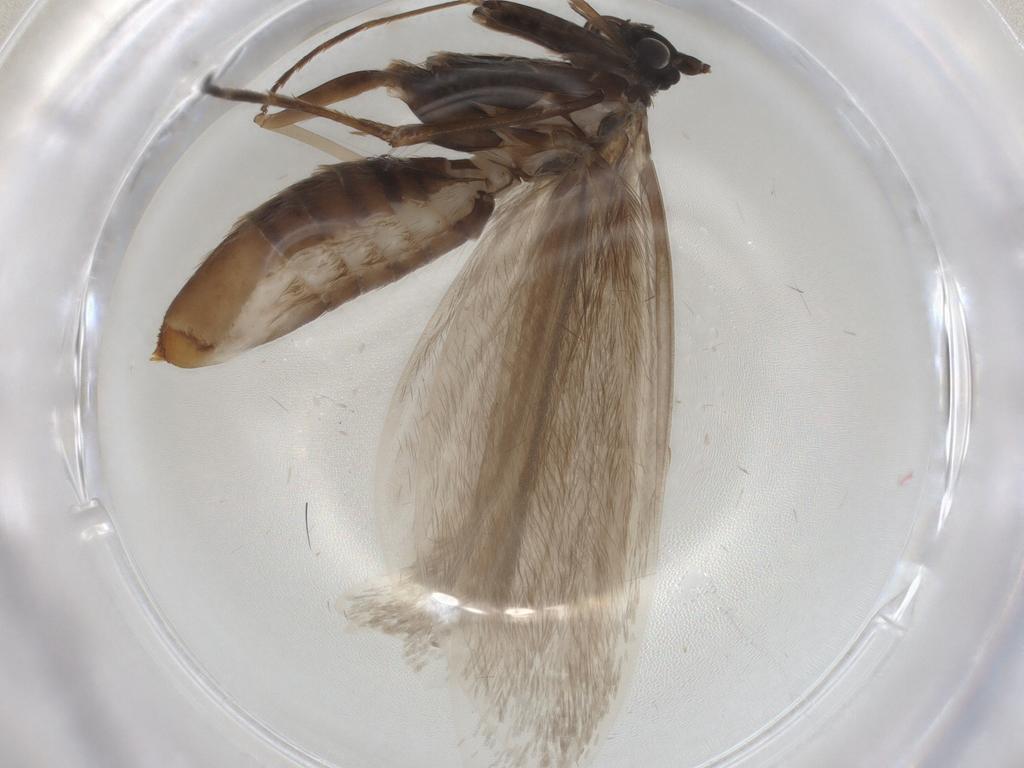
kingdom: Animalia
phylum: Arthropoda
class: Insecta
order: Lepidoptera
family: Adelidae
